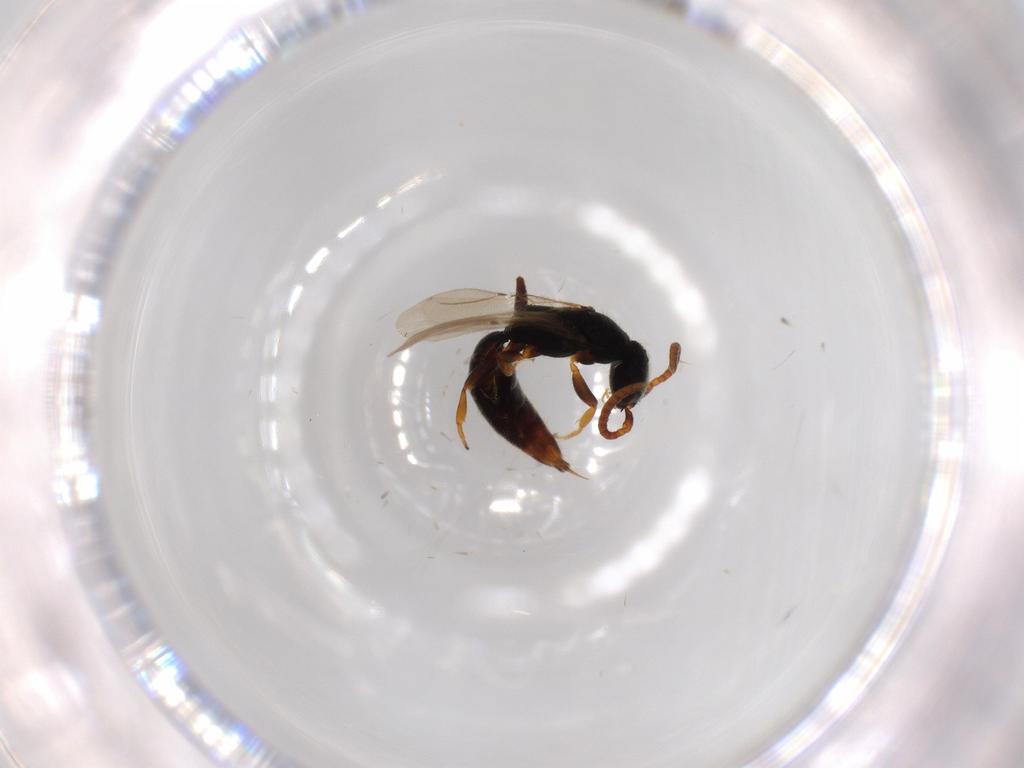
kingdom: Animalia
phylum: Arthropoda
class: Insecta
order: Hymenoptera
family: Bethylidae
